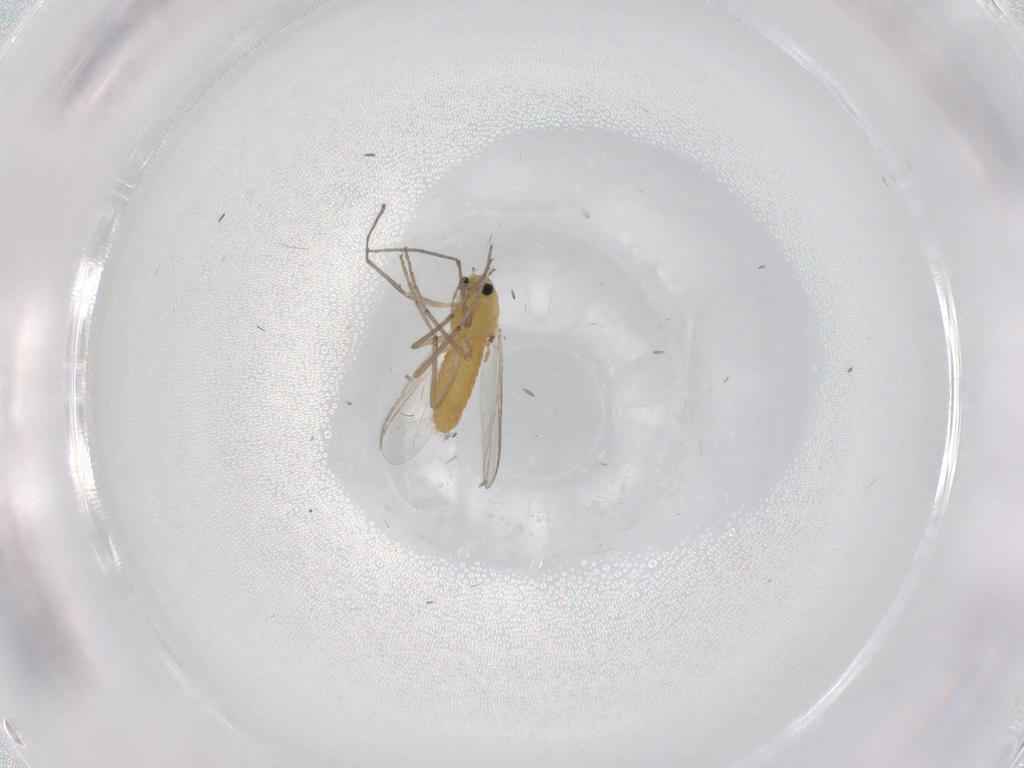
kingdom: Animalia
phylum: Arthropoda
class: Insecta
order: Diptera
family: Chironomidae
